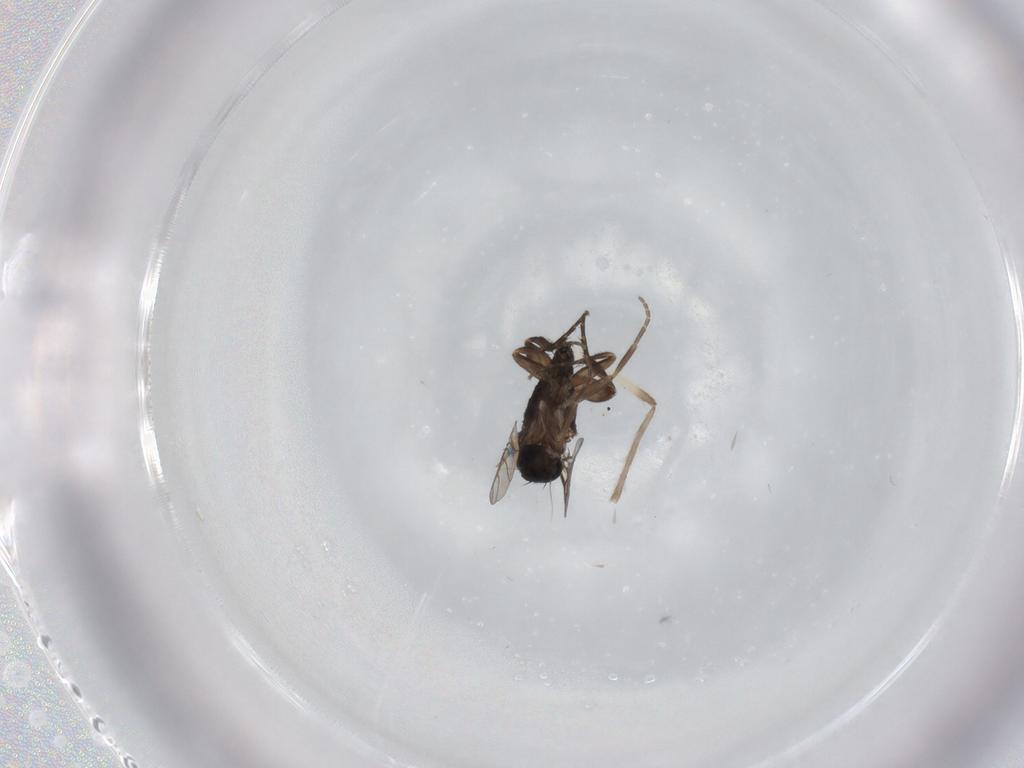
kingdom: Animalia
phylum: Arthropoda
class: Insecta
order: Diptera
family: Phoridae
